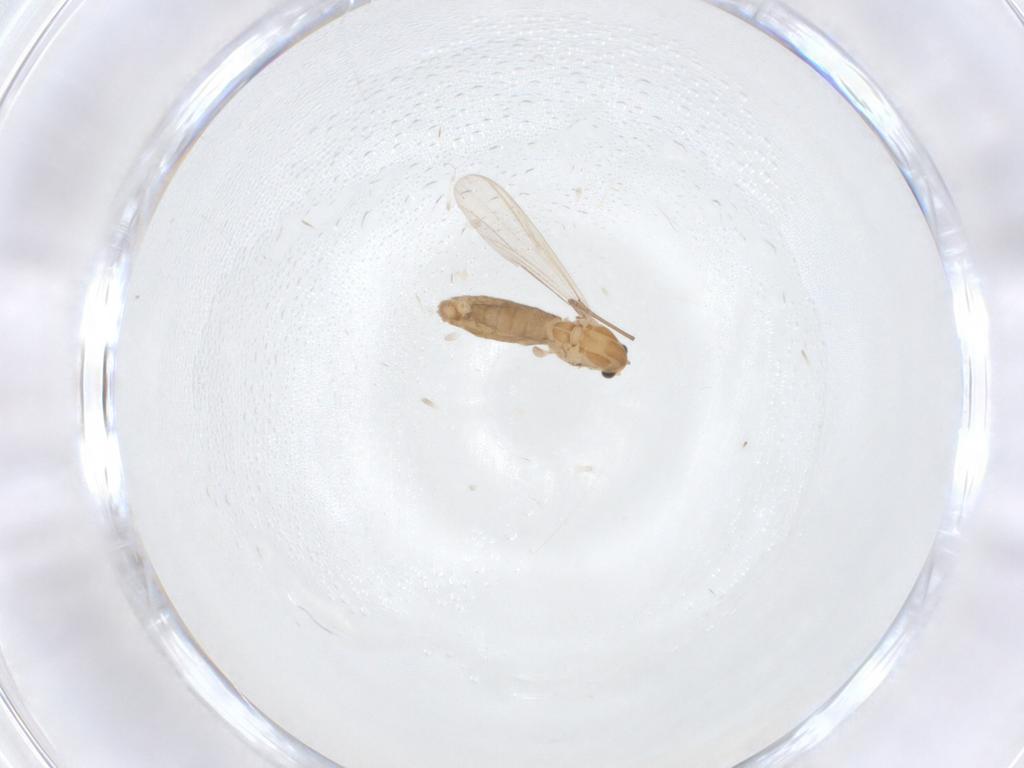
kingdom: Animalia
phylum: Arthropoda
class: Insecta
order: Diptera
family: Chironomidae
